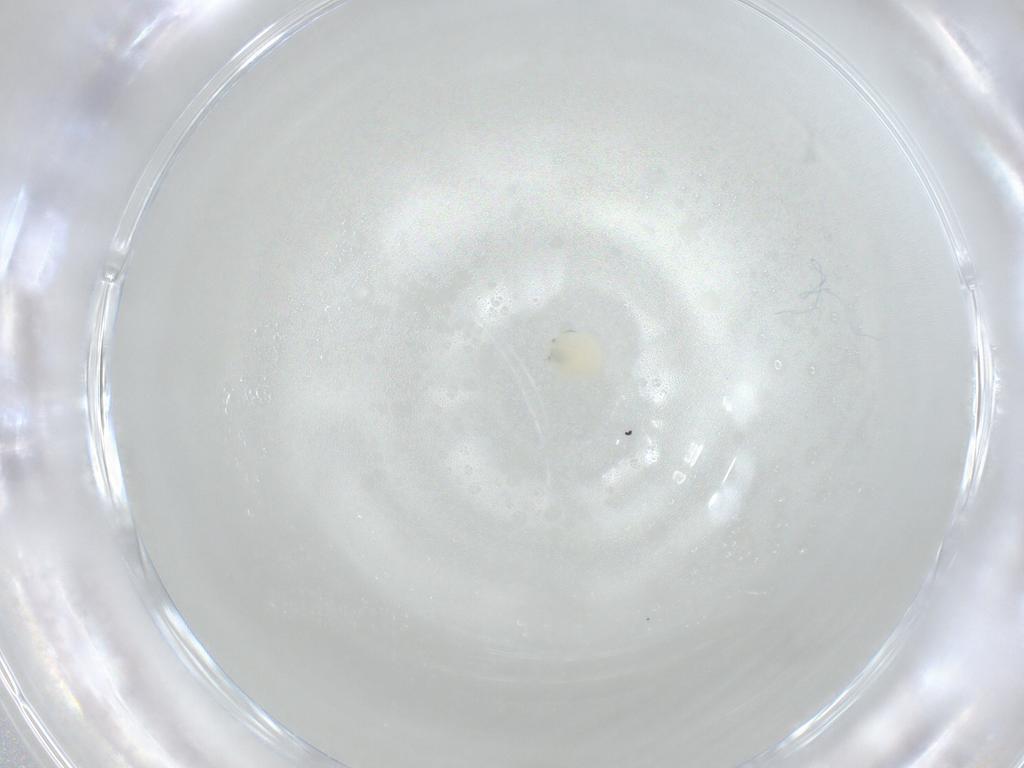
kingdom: Animalia
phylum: Arthropoda
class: Arachnida
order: Trombidiformes
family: Arrenuridae
